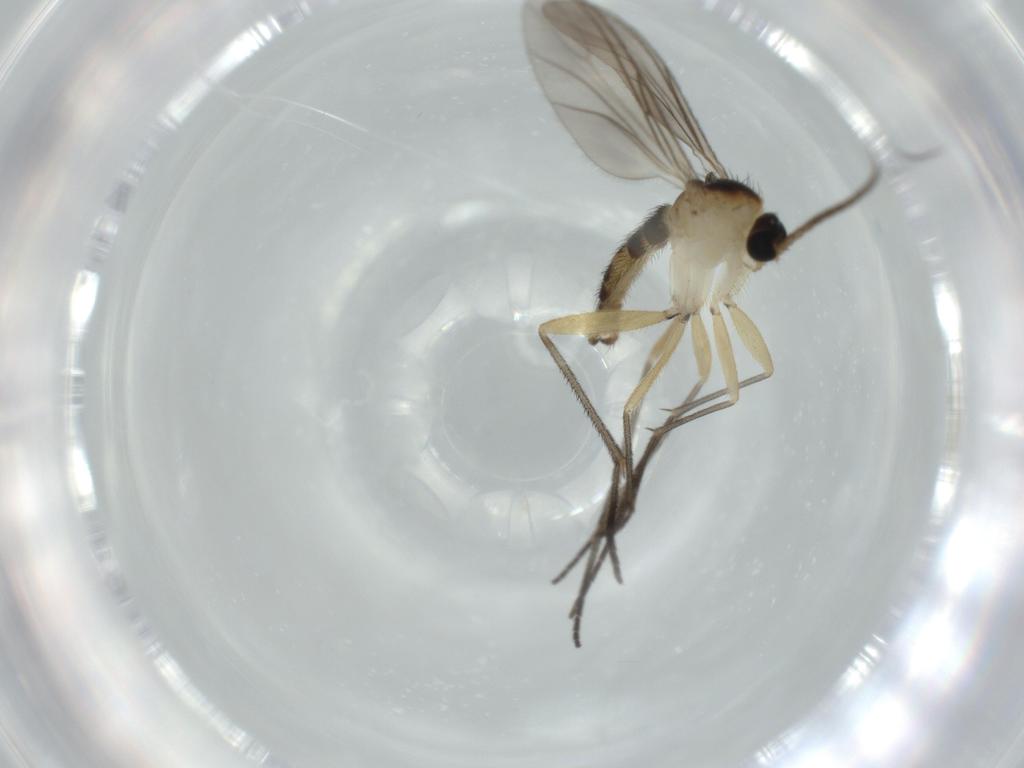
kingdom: Animalia
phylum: Arthropoda
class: Insecta
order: Diptera
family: Sciaridae
